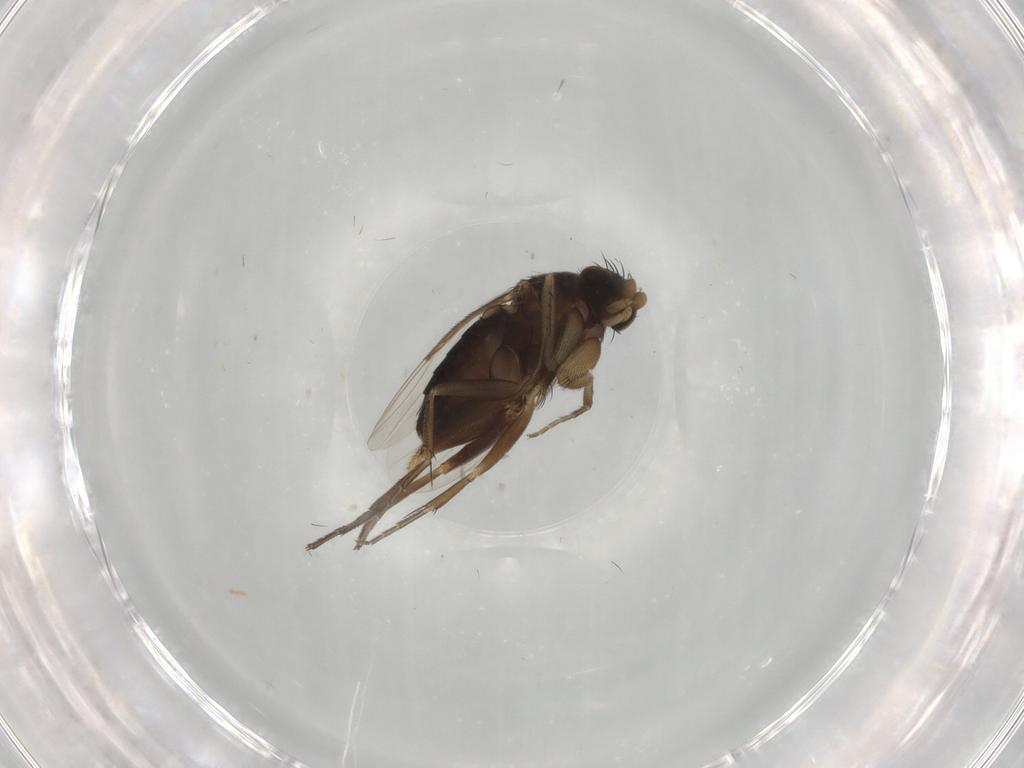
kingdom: Animalia
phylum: Arthropoda
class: Insecta
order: Diptera
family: Phoridae
